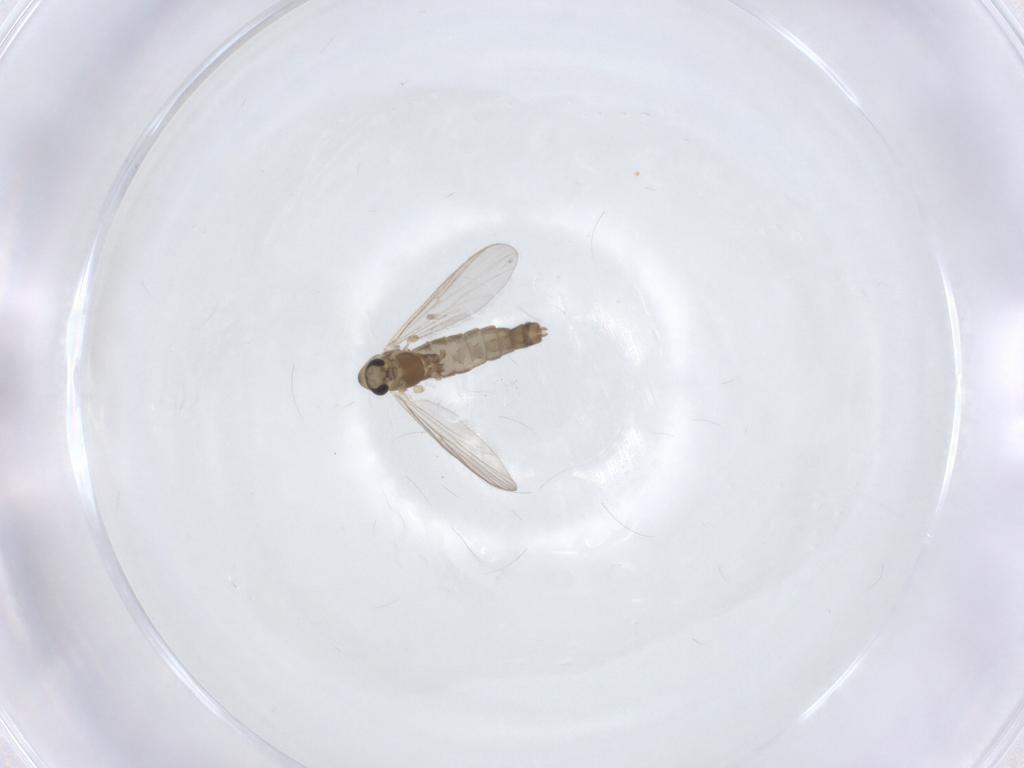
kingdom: Animalia
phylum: Arthropoda
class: Insecta
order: Diptera
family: Chironomidae
